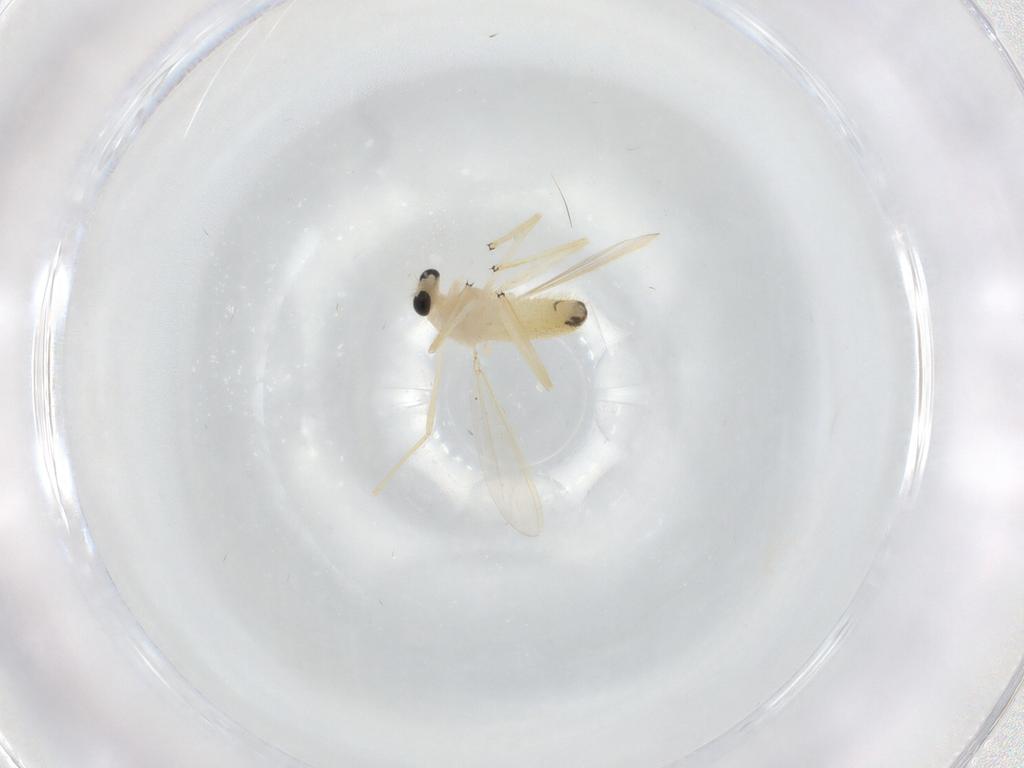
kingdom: Animalia
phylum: Arthropoda
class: Insecta
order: Diptera
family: Chironomidae
